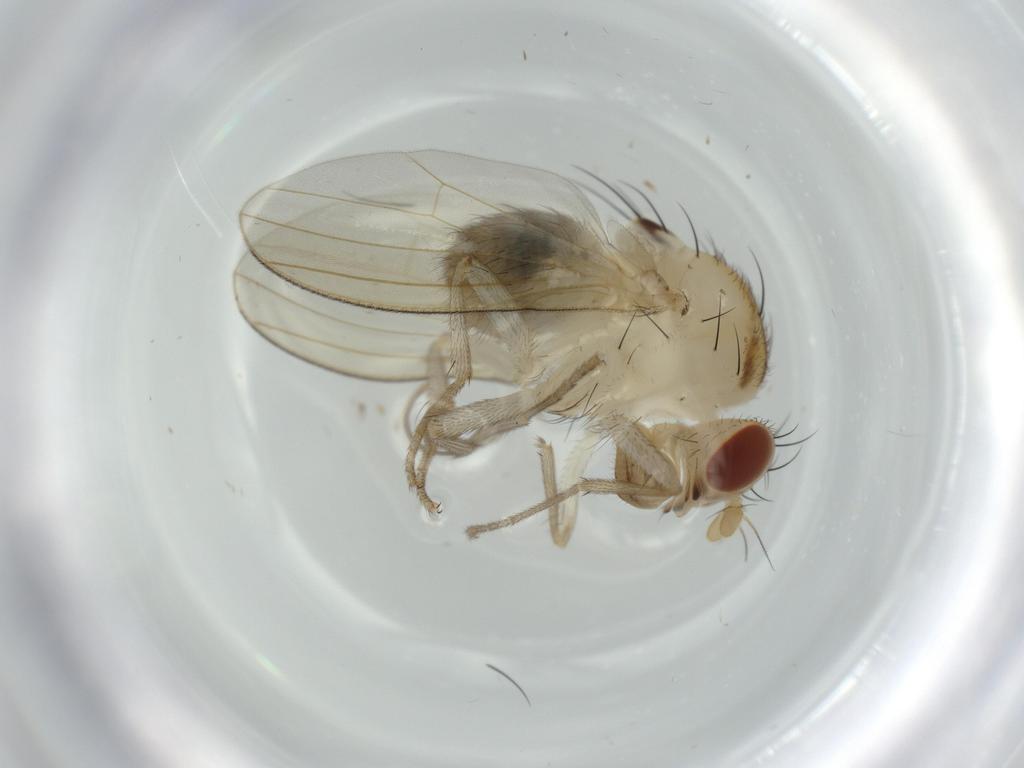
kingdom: Animalia
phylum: Arthropoda
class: Insecta
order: Diptera
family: Lauxaniidae
